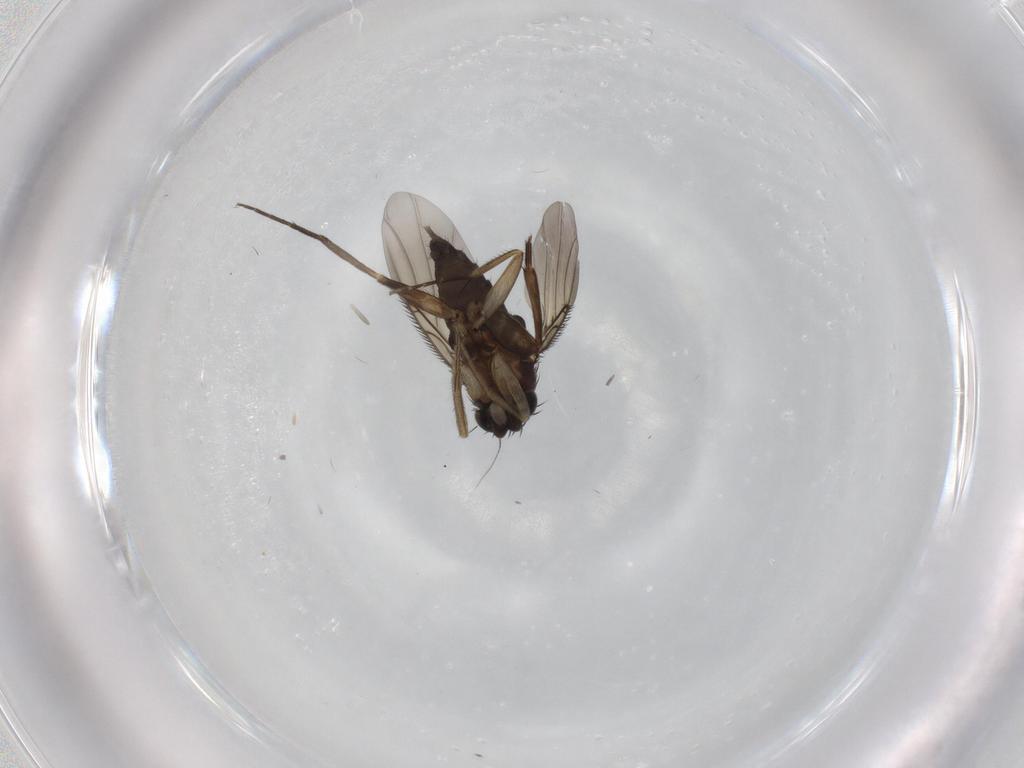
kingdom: Animalia
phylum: Arthropoda
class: Insecta
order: Diptera
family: Phoridae
